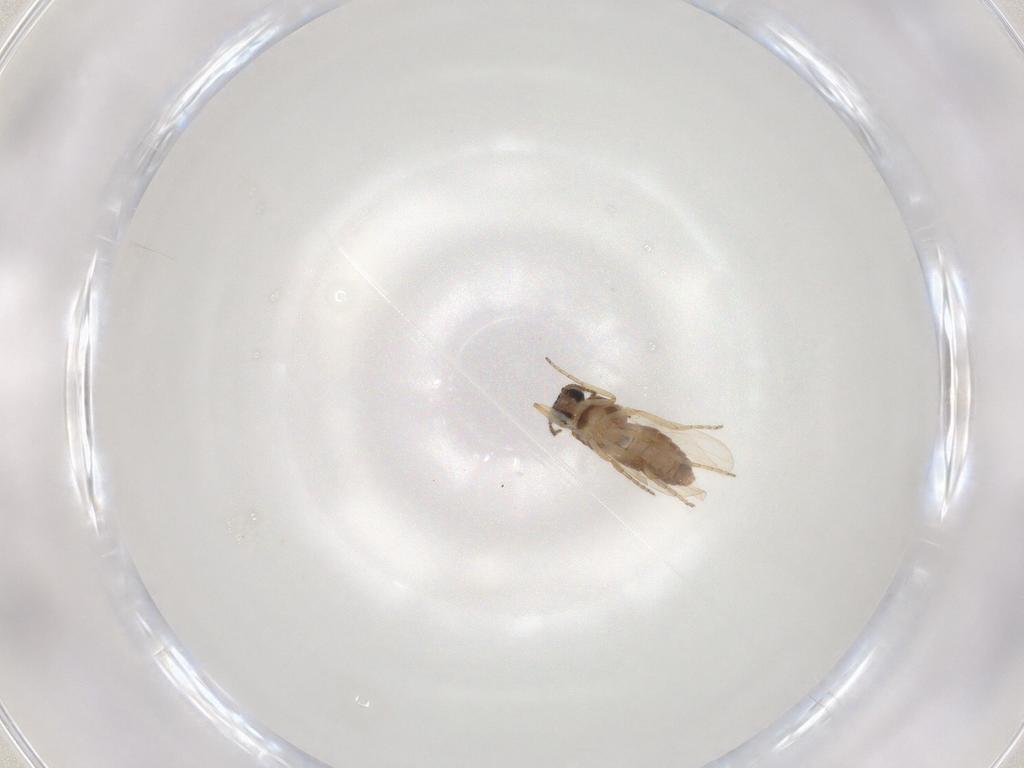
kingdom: Animalia
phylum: Arthropoda
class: Insecta
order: Diptera
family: Ceratopogonidae
